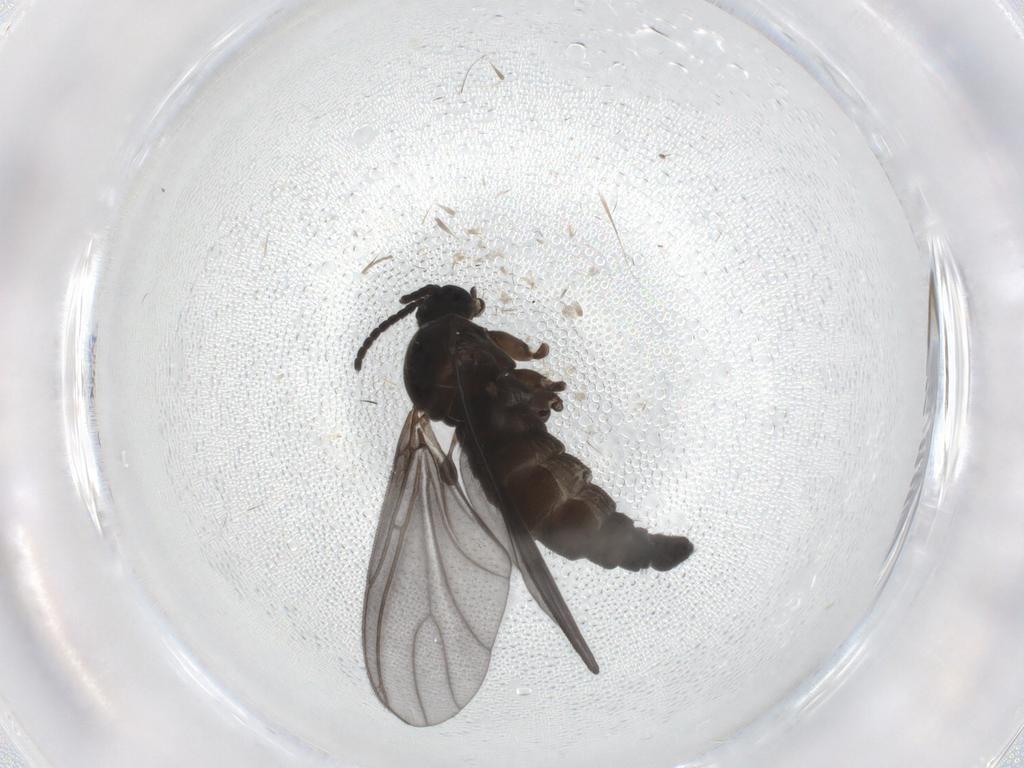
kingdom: Animalia
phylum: Arthropoda
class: Insecta
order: Diptera
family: Sciaridae
